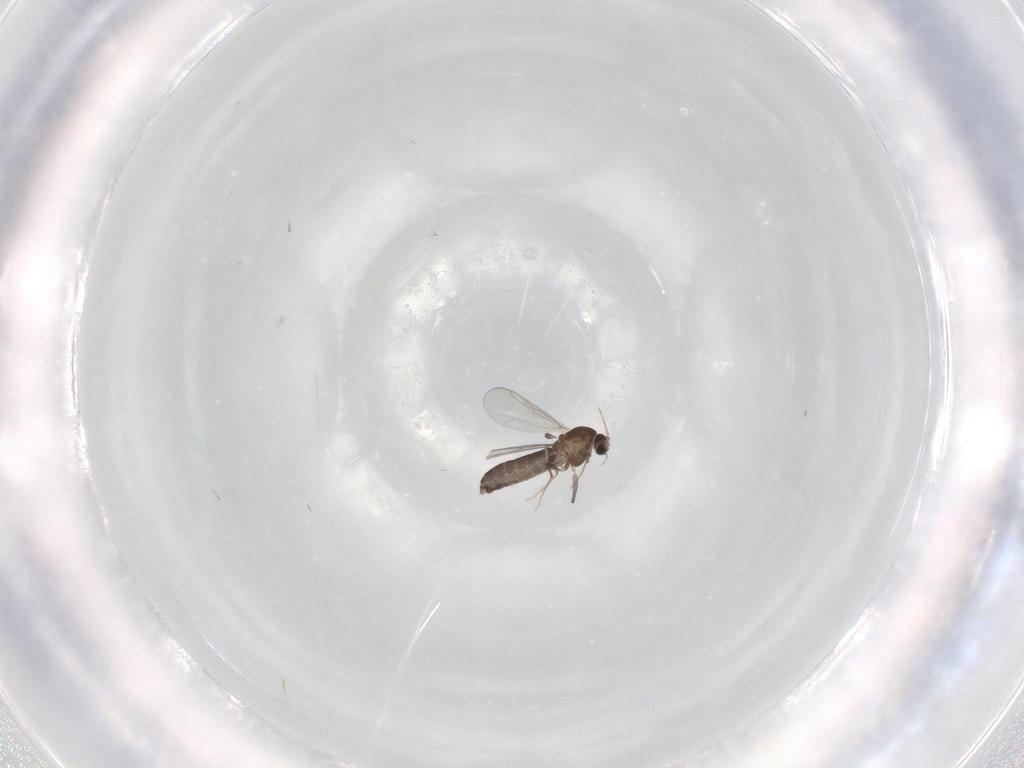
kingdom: Animalia
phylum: Arthropoda
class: Insecta
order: Diptera
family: Chironomidae
